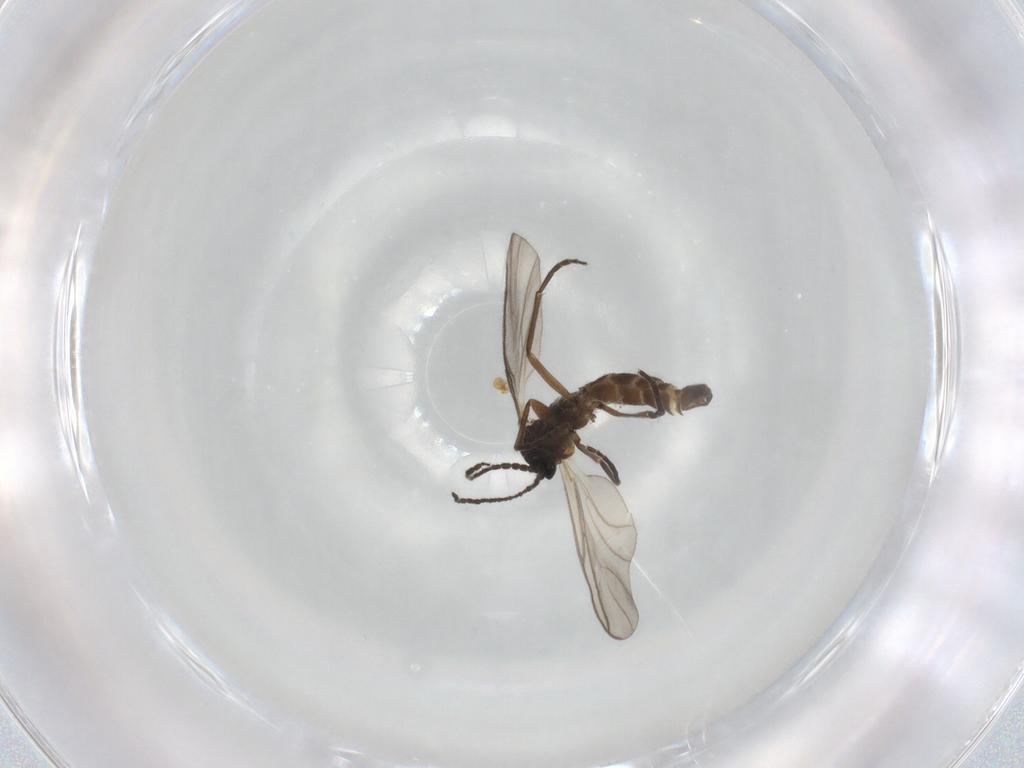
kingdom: Animalia
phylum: Arthropoda
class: Insecta
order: Diptera
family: Sciaridae
